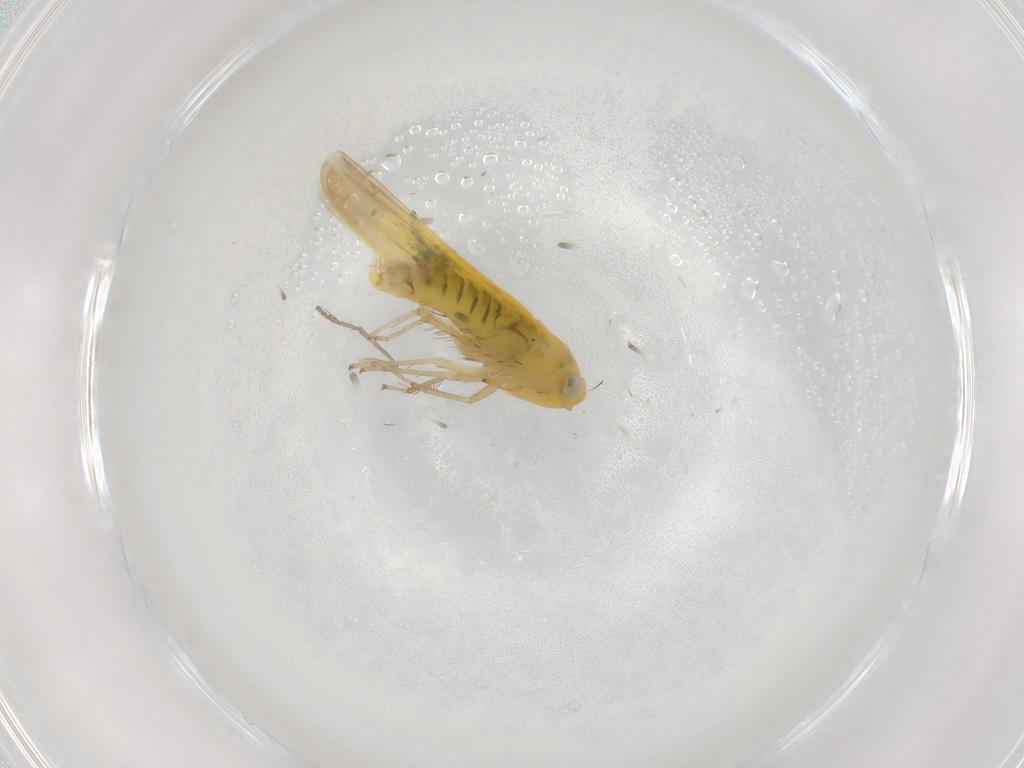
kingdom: Animalia
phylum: Arthropoda
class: Insecta
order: Hemiptera
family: Cicadellidae
